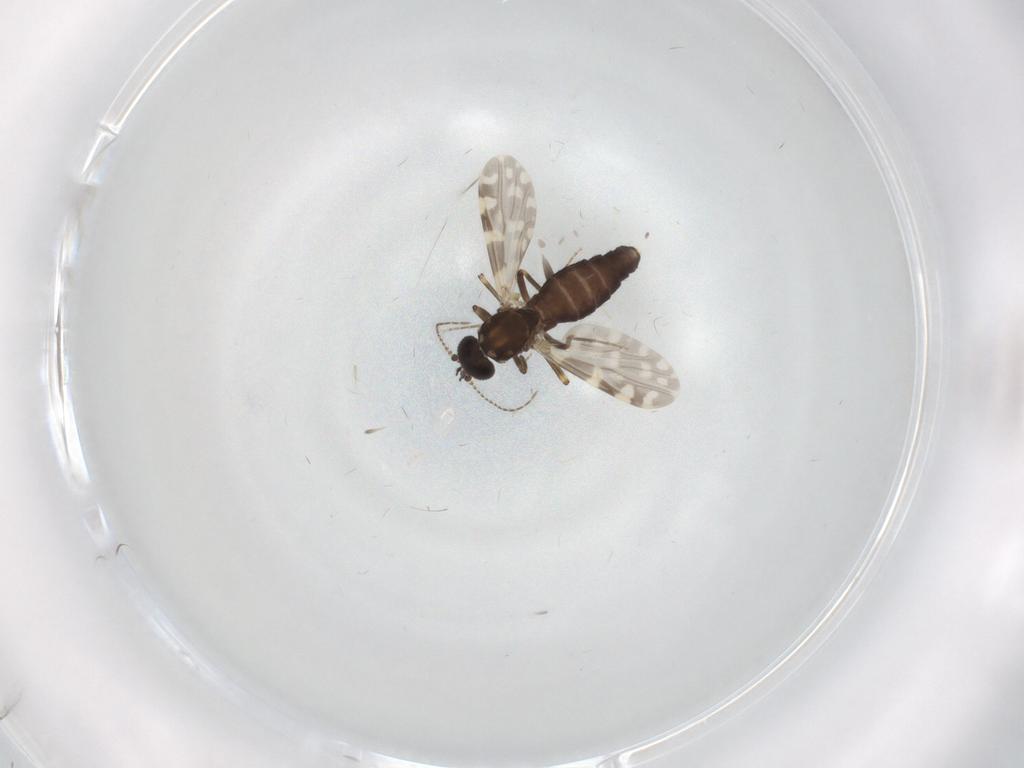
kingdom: Animalia
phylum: Arthropoda
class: Insecta
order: Diptera
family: Ceratopogonidae
